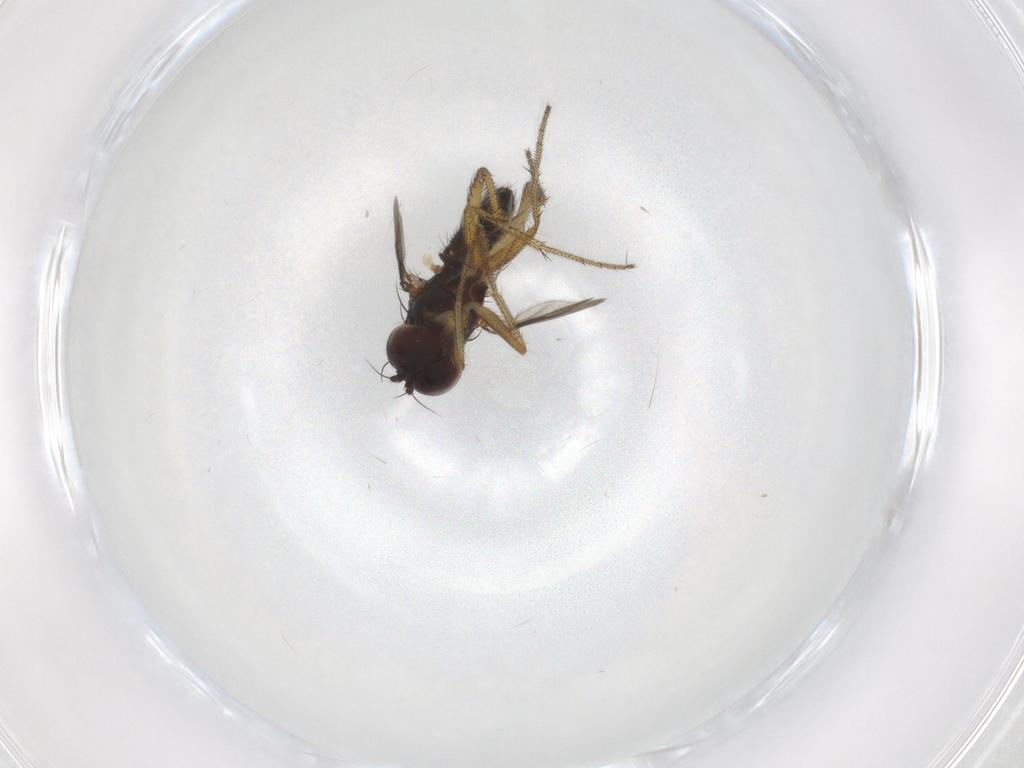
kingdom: Animalia
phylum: Arthropoda
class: Insecta
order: Diptera
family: Dolichopodidae
